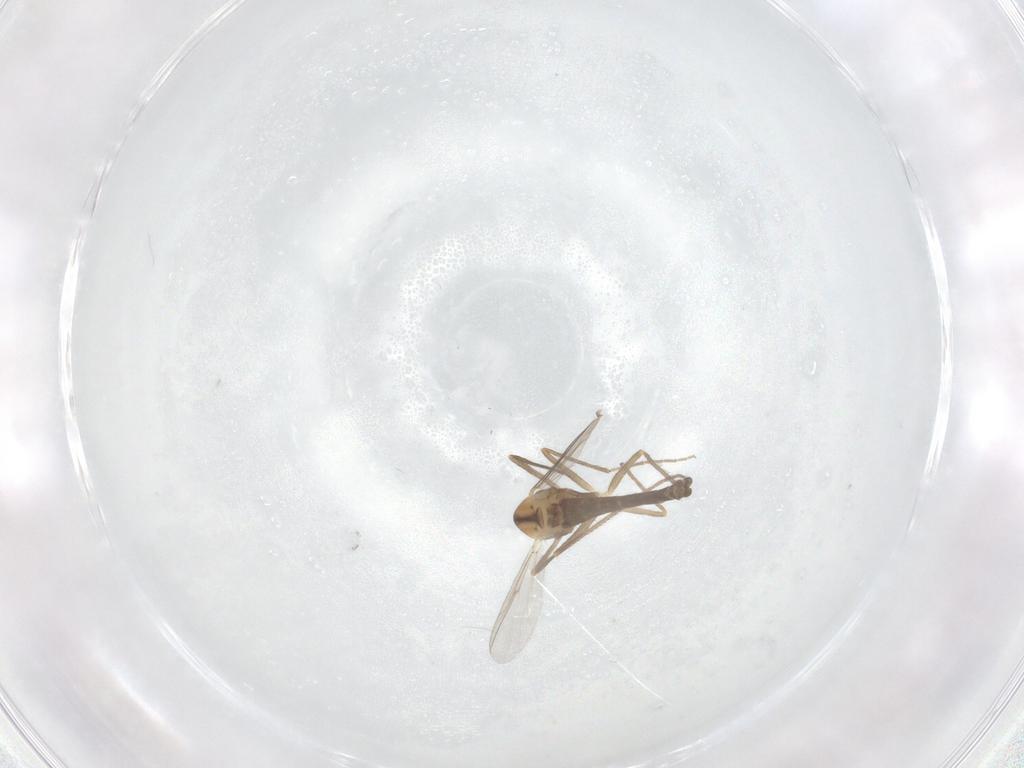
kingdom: Animalia
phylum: Arthropoda
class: Insecta
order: Diptera
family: Chironomidae
